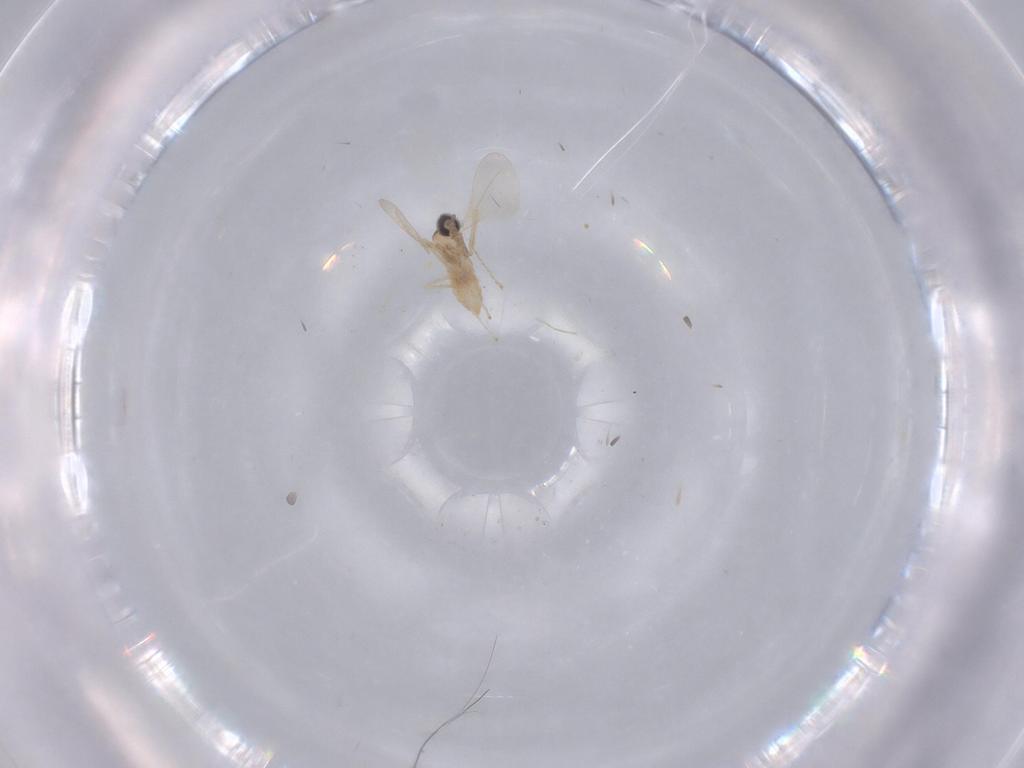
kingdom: Animalia
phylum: Arthropoda
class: Insecta
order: Diptera
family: Cecidomyiidae
